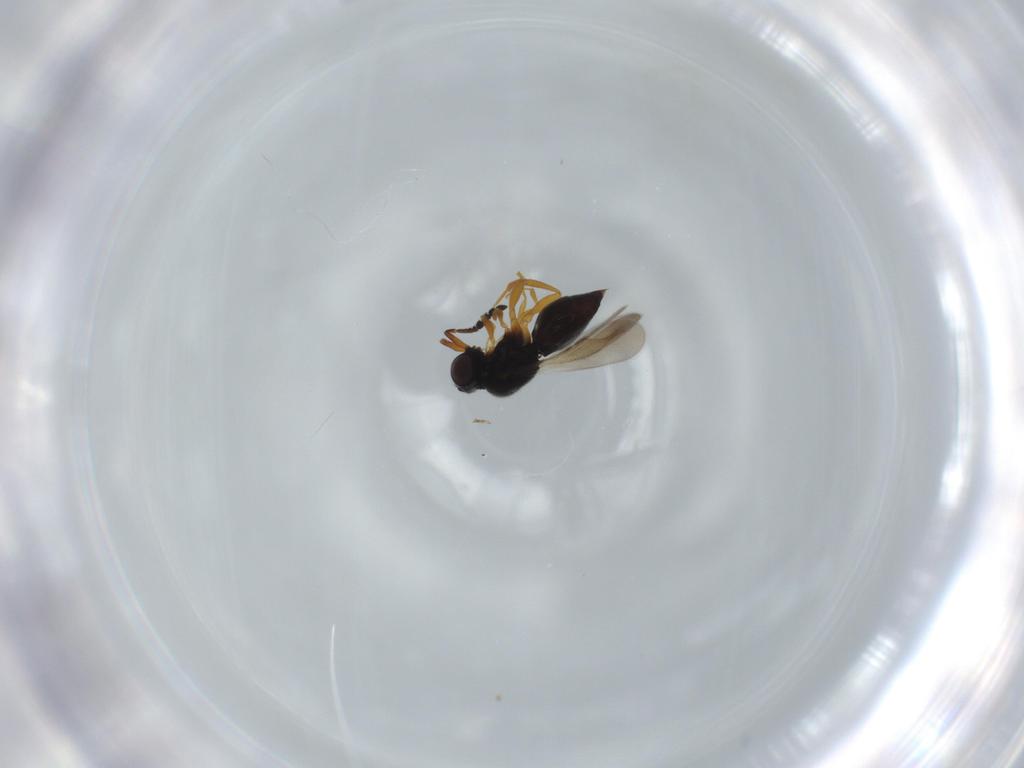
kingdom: Animalia
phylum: Arthropoda
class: Insecta
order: Hymenoptera
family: Ceraphronidae
